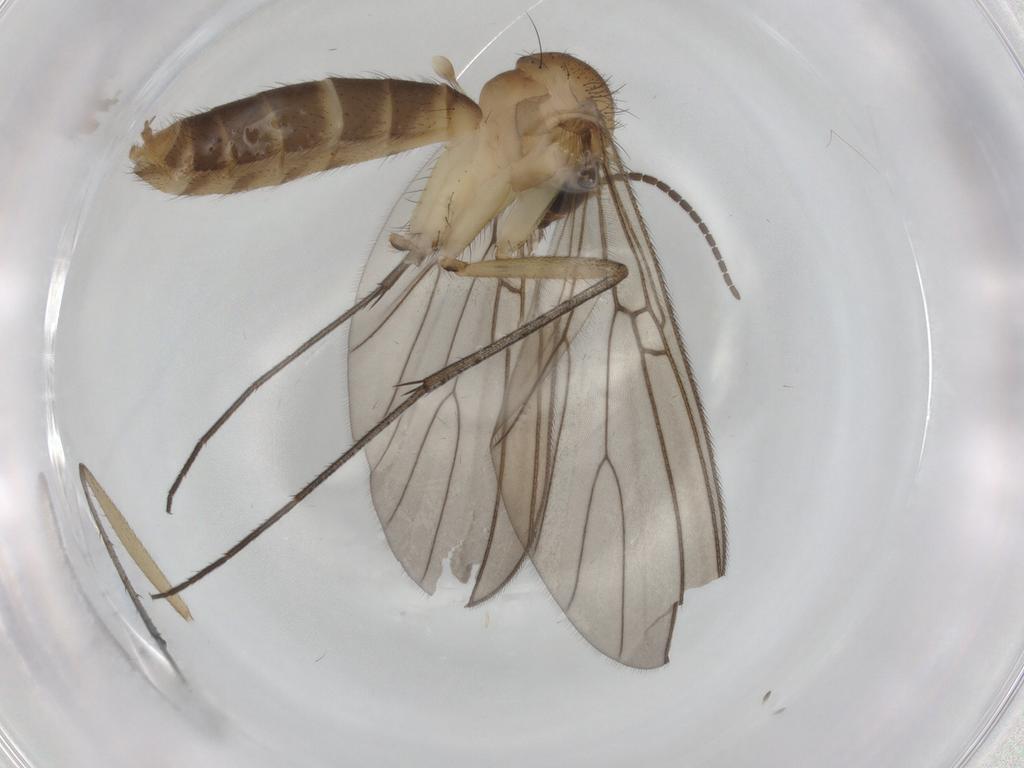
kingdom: Animalia
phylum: Arthropoda
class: Insecta
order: Diptera
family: Mycetophilidae
